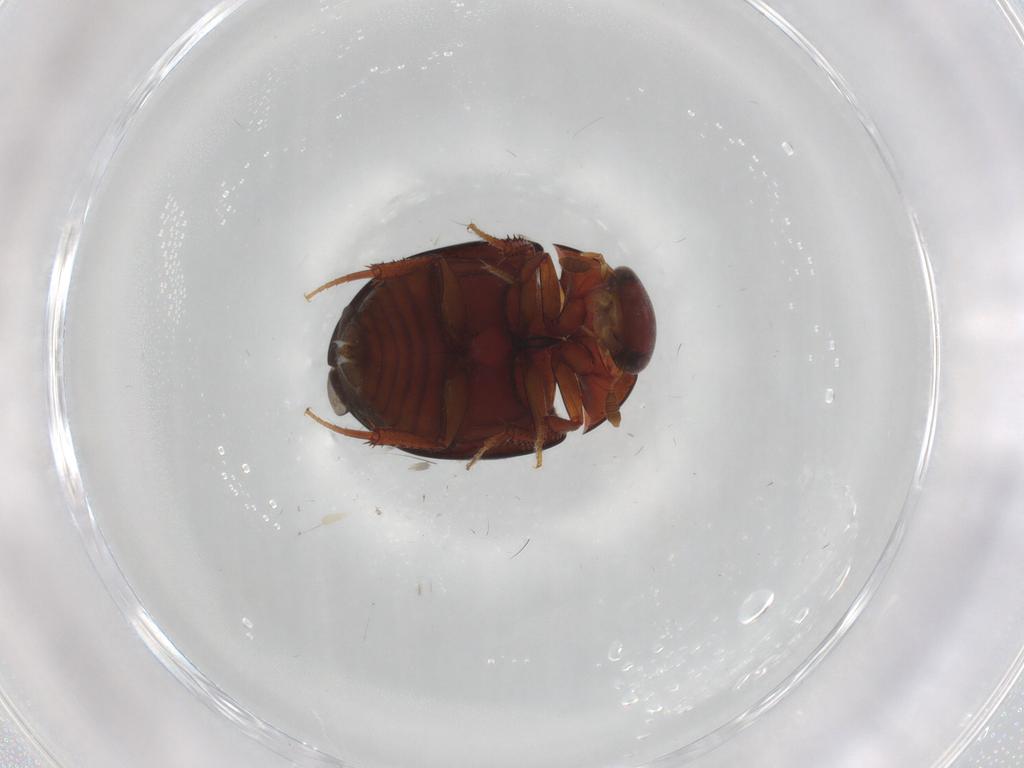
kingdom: Animalia
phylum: Arthropoda
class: Insecta
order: Coleoptera
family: Hydrophilidae
